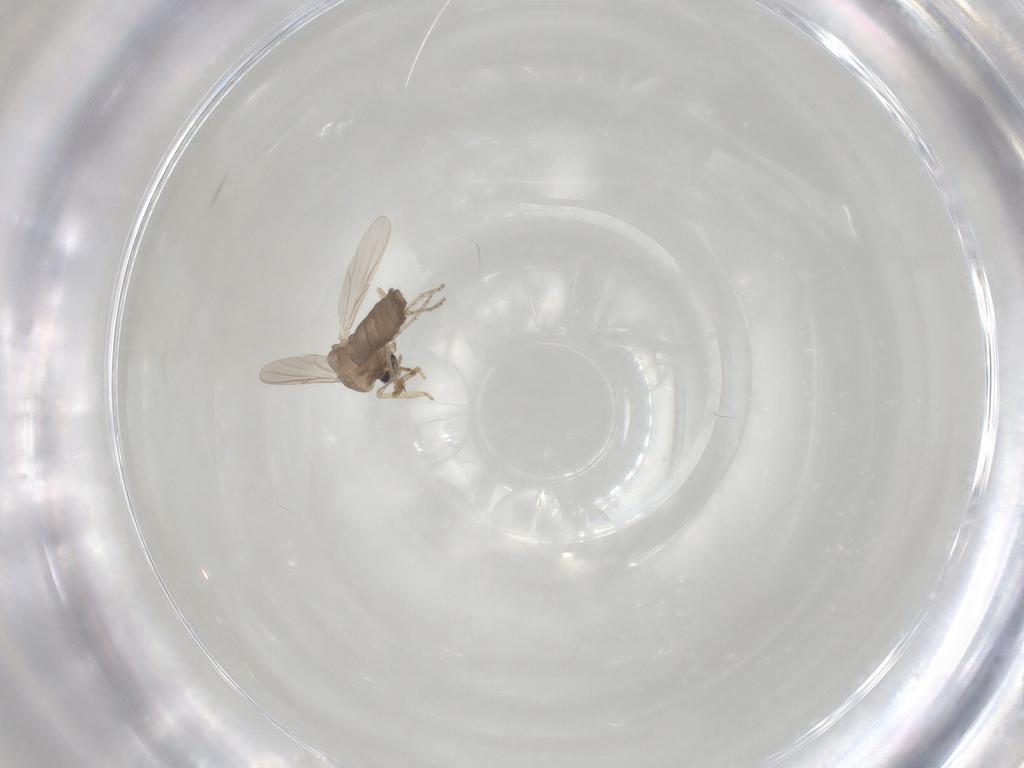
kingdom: Animalia
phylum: Arthropoda
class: Insecta
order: Diptera
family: Ceratopogonidae
